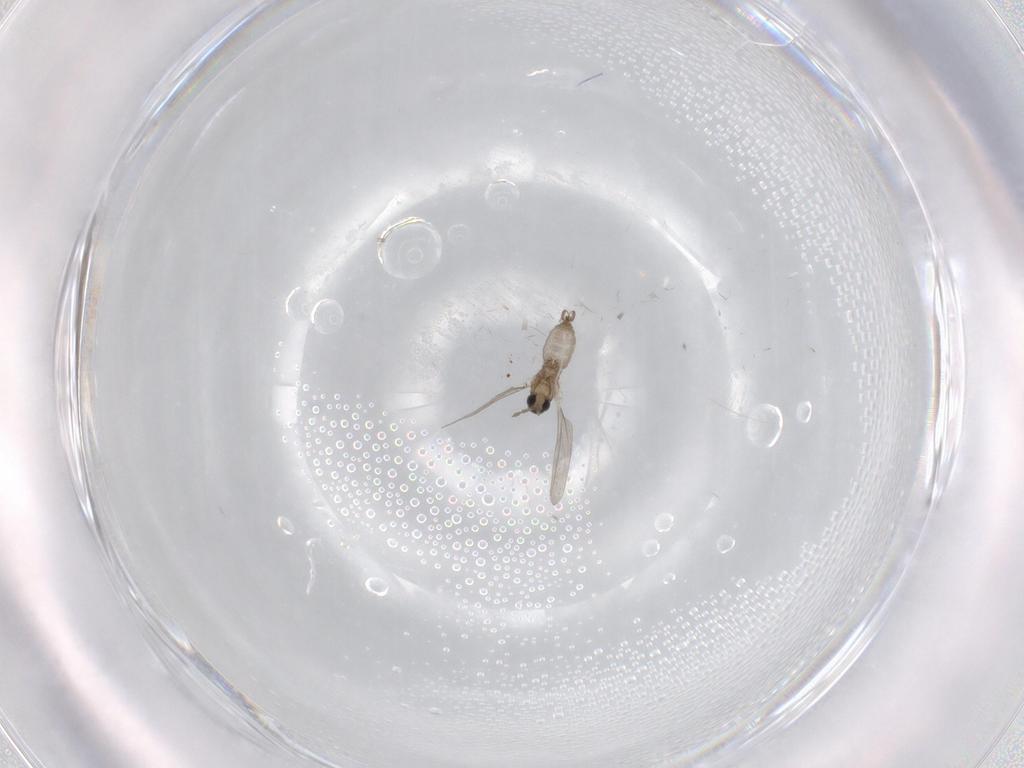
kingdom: Animalia
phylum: Arthropoda
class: Insecta
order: Diptera
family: Cecidomyiidae
